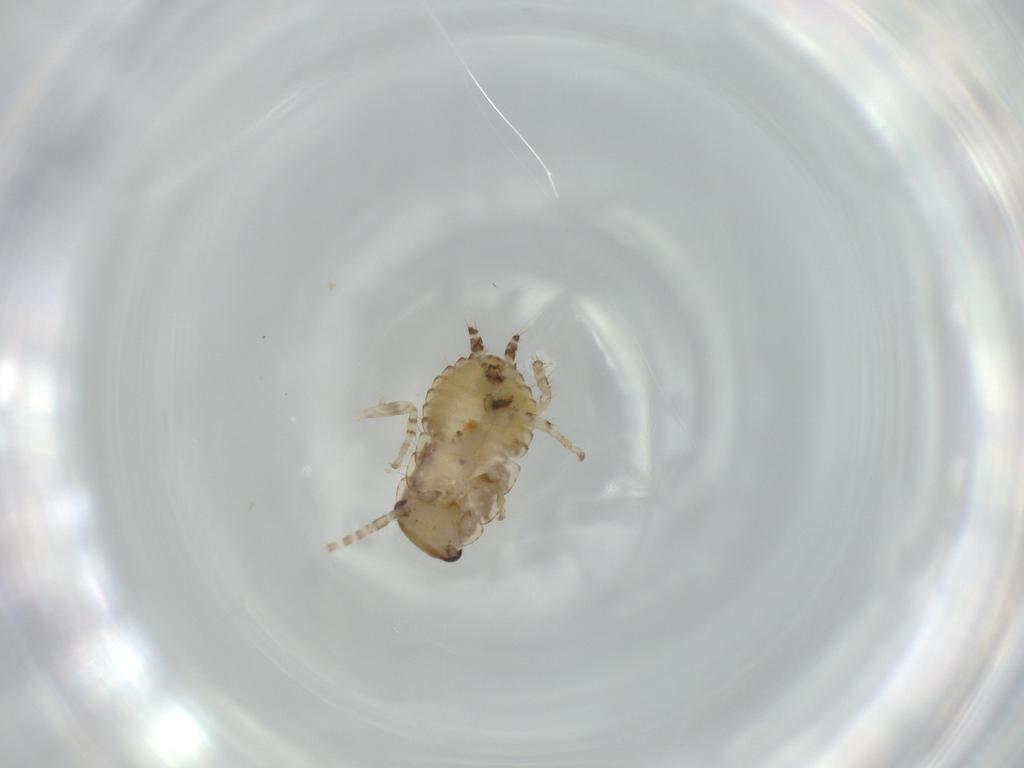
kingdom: Animalia
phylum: Arthropoda
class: Insecta
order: Blattodea
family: Ectobiidae
